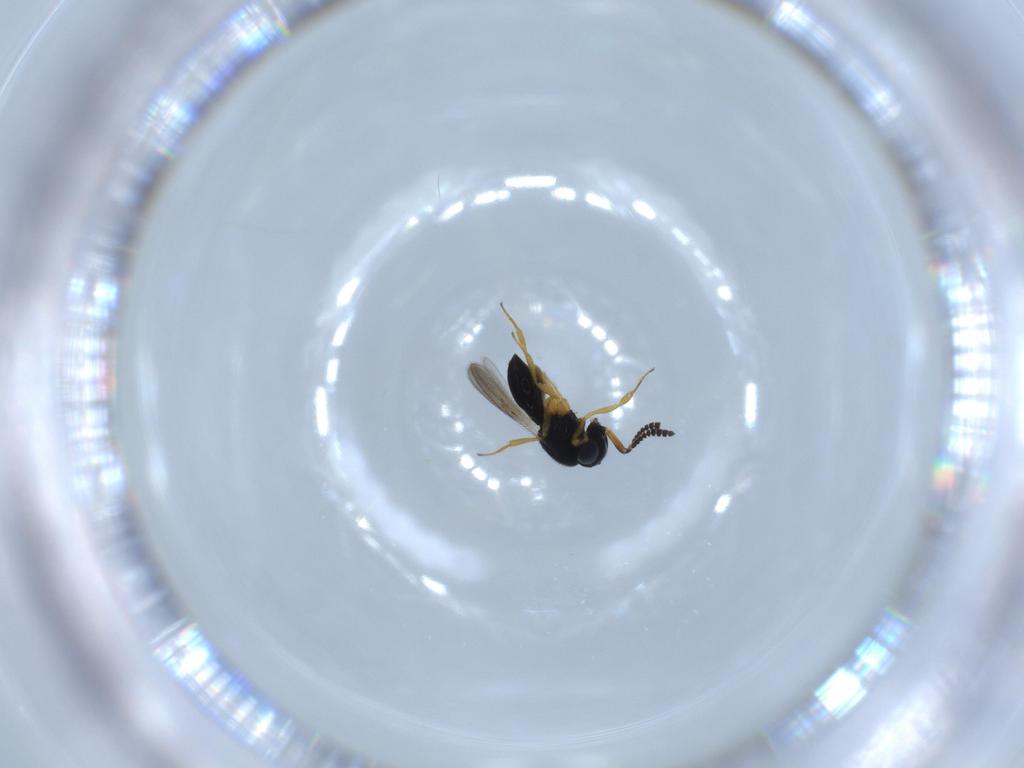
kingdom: Animalia
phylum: Arthropoda
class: Insecta
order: Hymenoptera
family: Scelionidae
